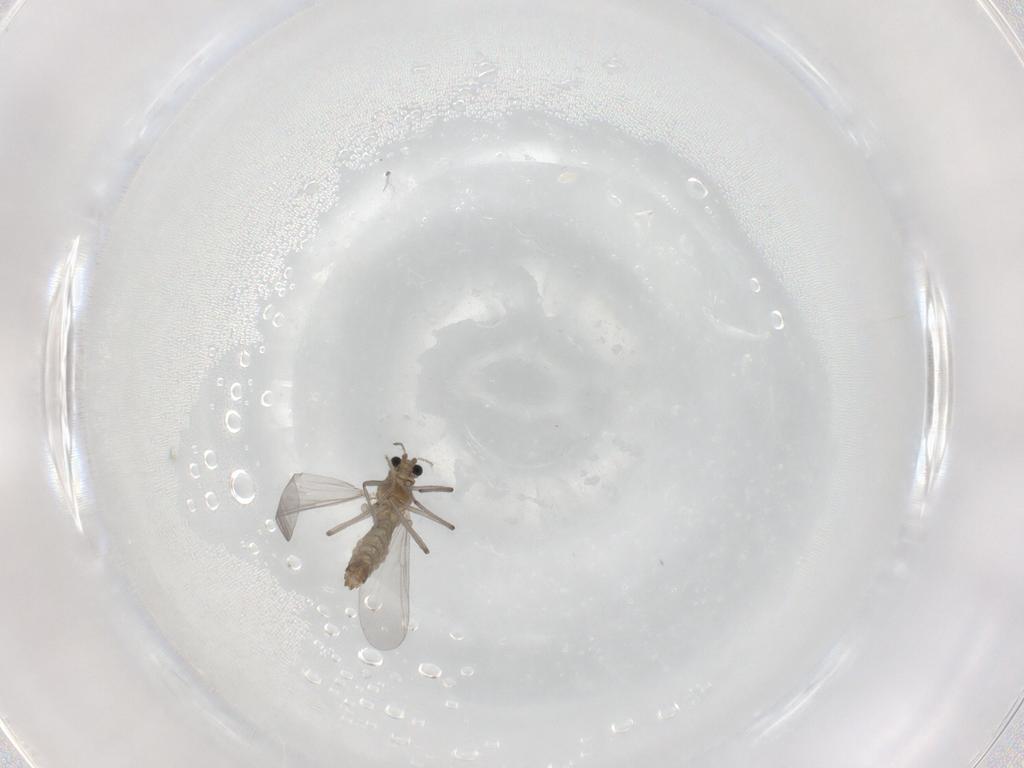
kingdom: Animalia
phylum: Arthropoda
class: Insecta
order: Diptera
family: Chironomidae
